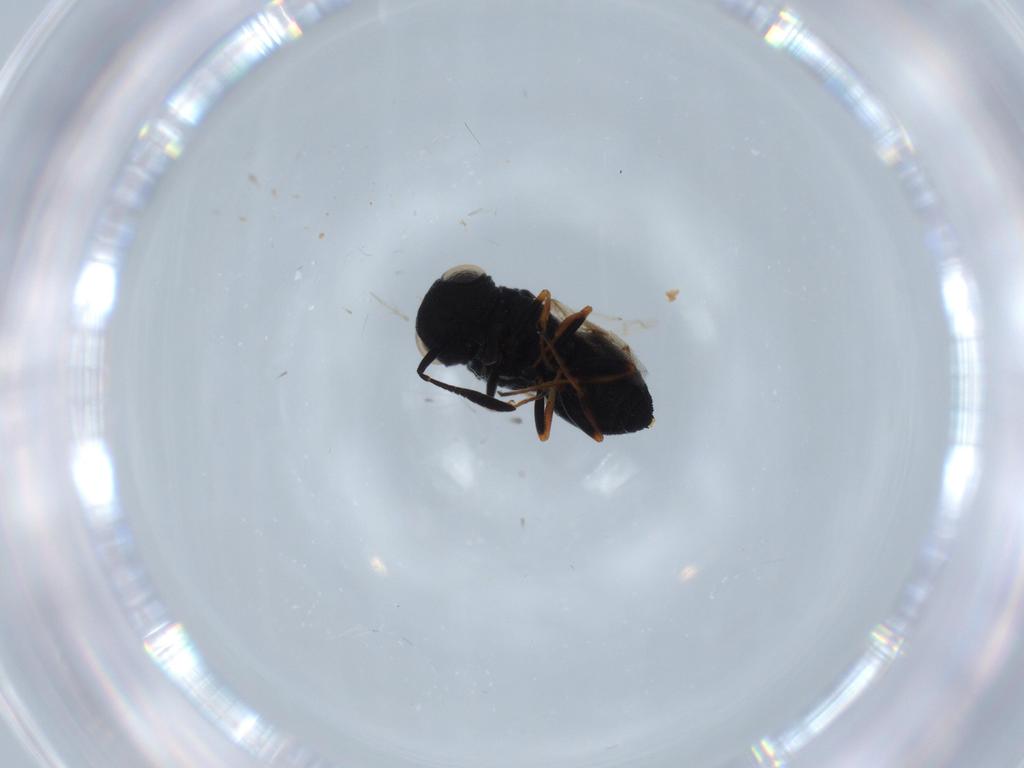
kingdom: Animalia
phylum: Arthropoda
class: Insecta
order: Hymenoptera
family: Scelionidae
